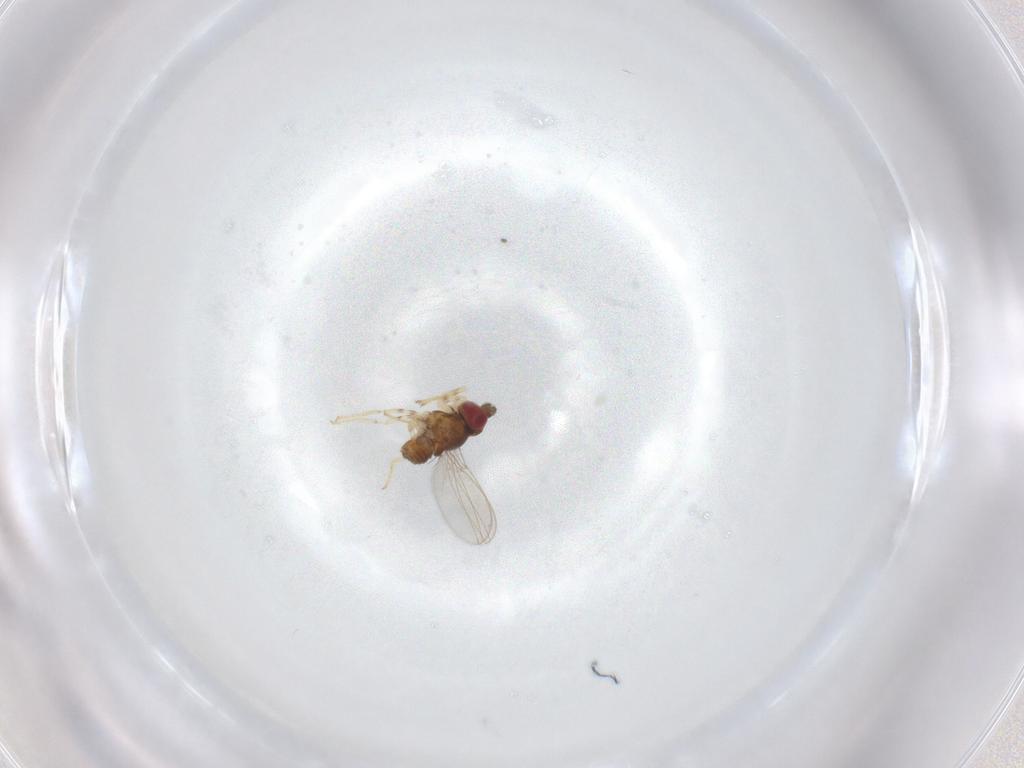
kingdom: Animalia
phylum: Arthropoda
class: Insecta
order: Diptera
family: Asteiidae
